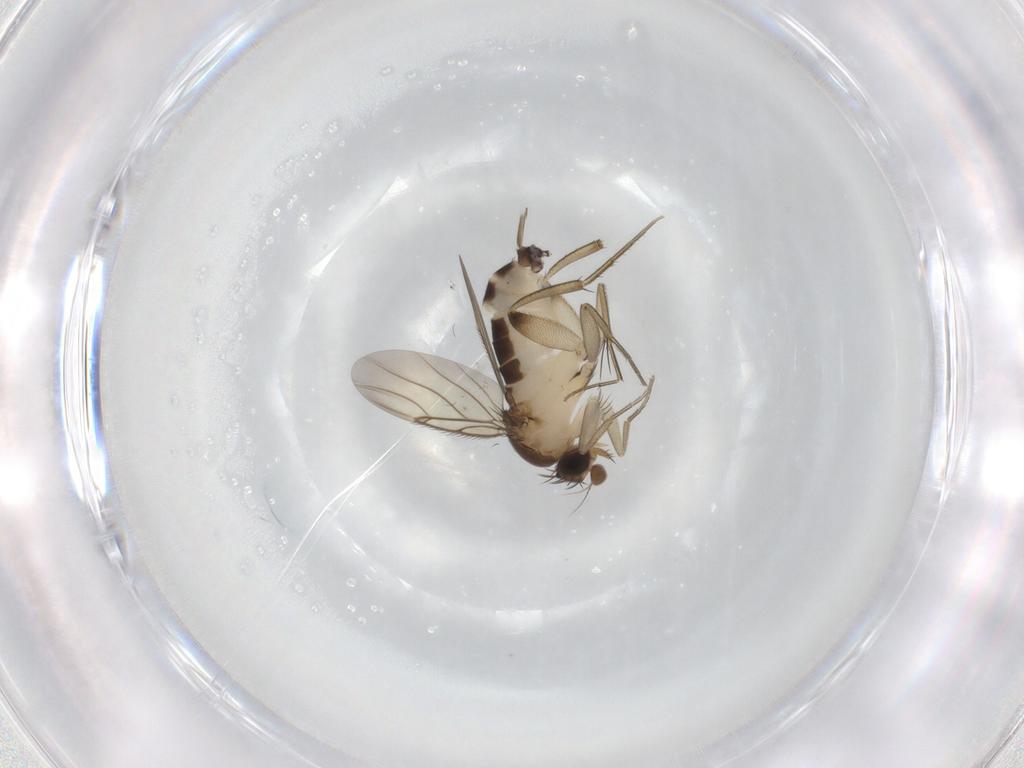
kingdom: Animalia
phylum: Arthropoda
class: Insecta
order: Diptera
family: Phoridae
